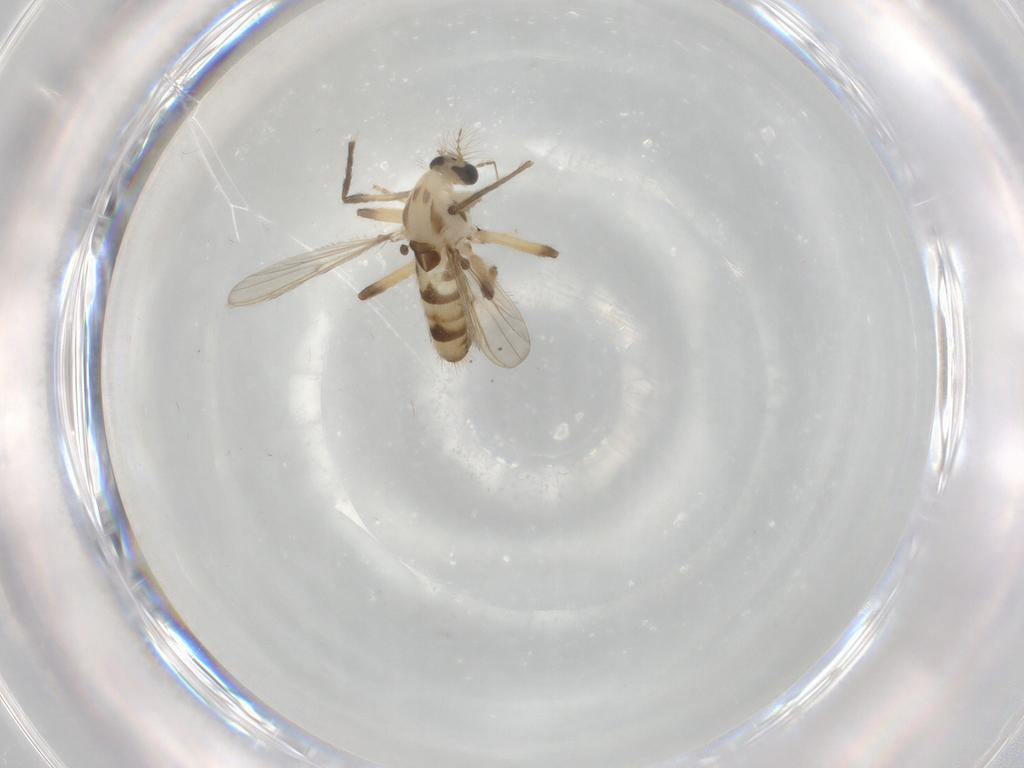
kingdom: Animalia
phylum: Arthropoda
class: Insecta
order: Diptera
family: Chironomidae
